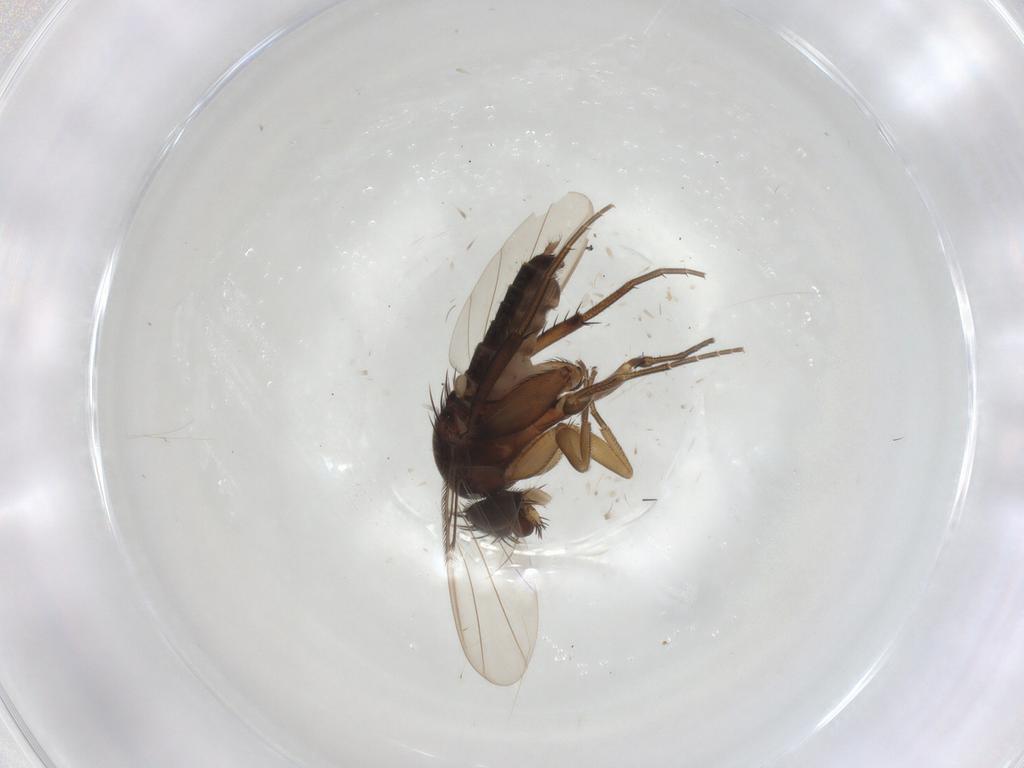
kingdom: Animalia
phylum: Arthropoda
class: Insecta
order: Diptera
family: Phoridae
